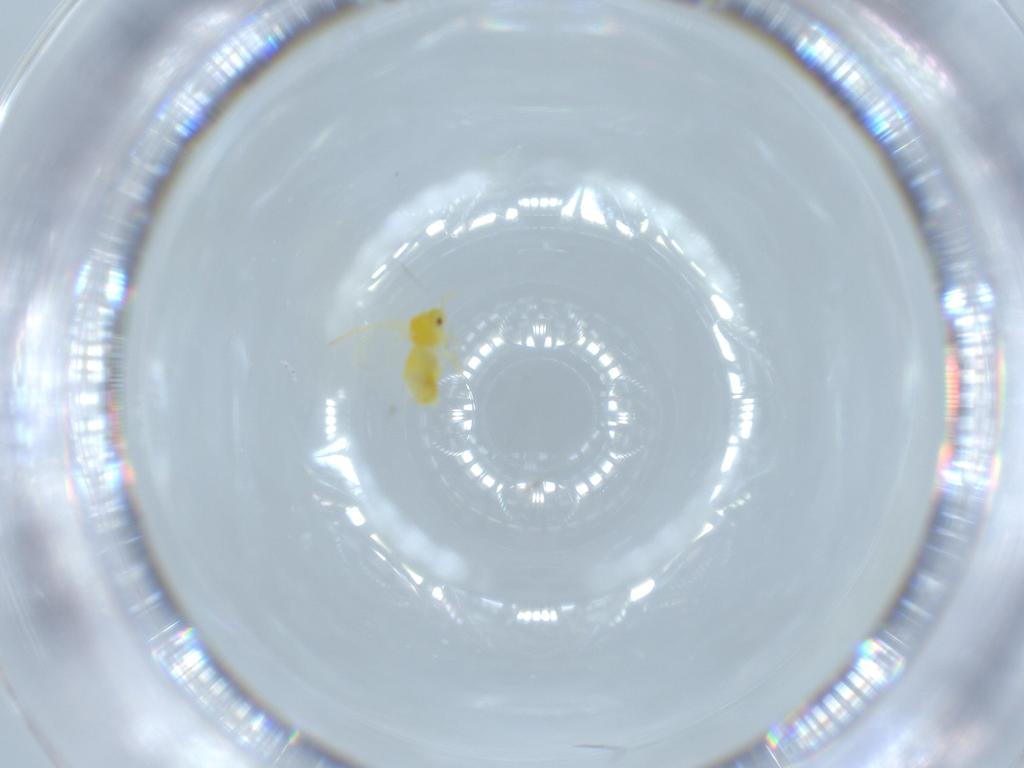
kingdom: Animalia
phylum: Arthropoda
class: Insecta
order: Hemiptera
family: Aleyrodidae
